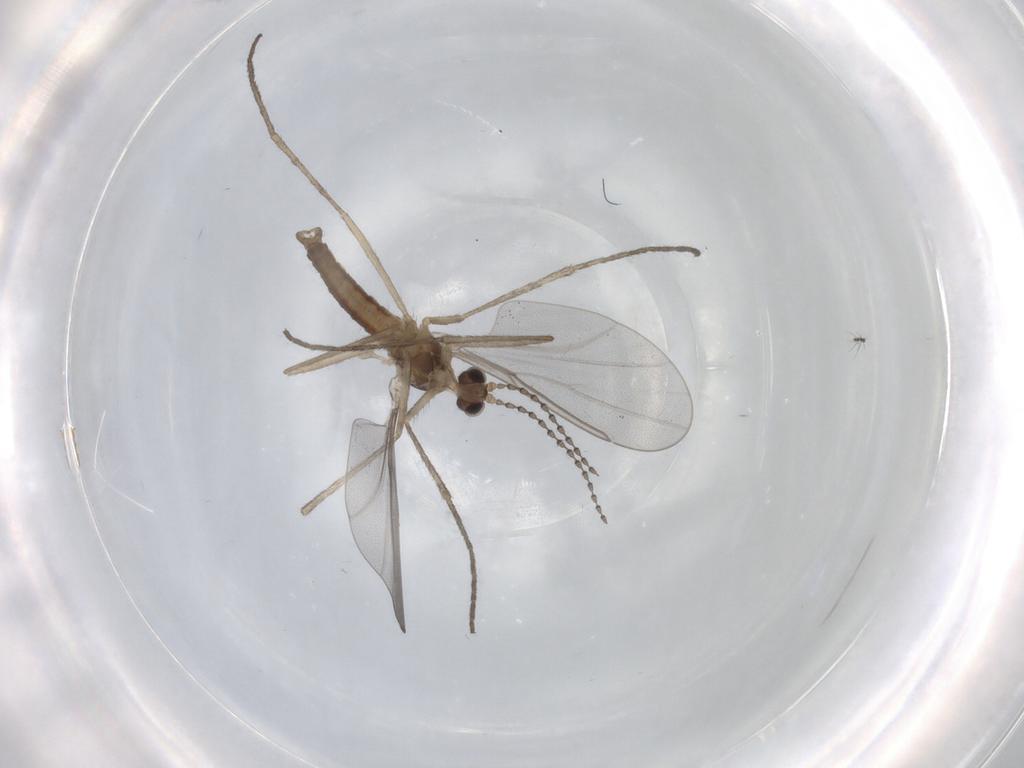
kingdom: Animalia
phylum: Arthropoda
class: Insecta
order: Diptera
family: Cecidomyiidae
